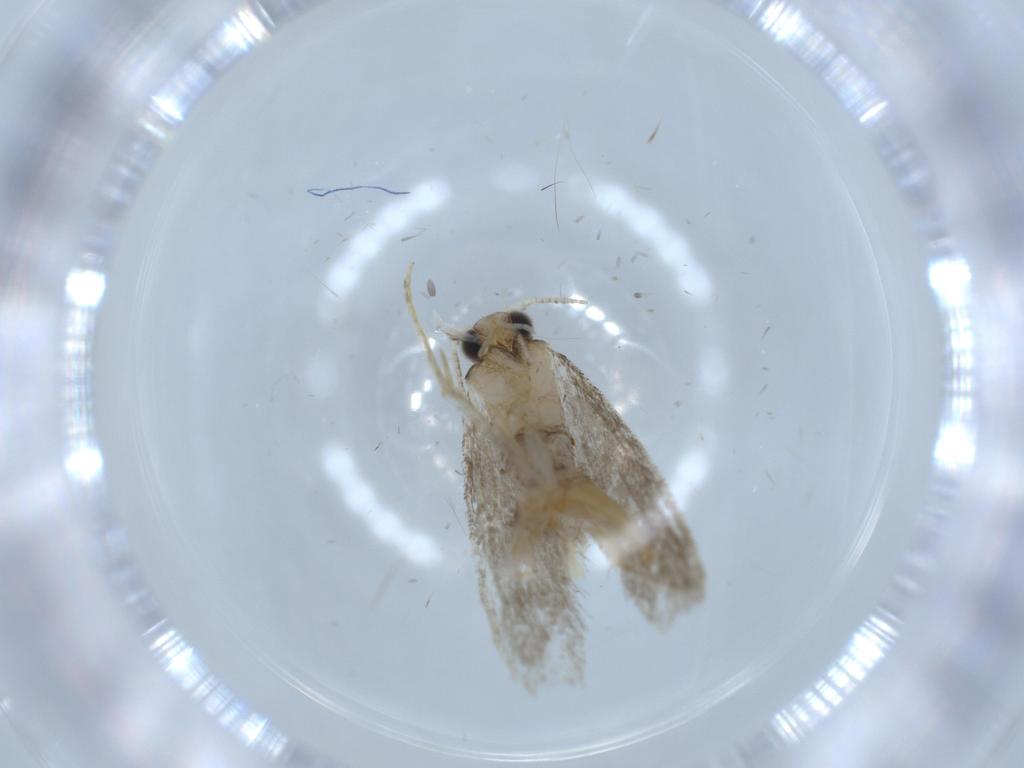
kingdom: Animalia
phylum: Arthropoda
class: Insecta
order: Lepidoptera
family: Tineidae
